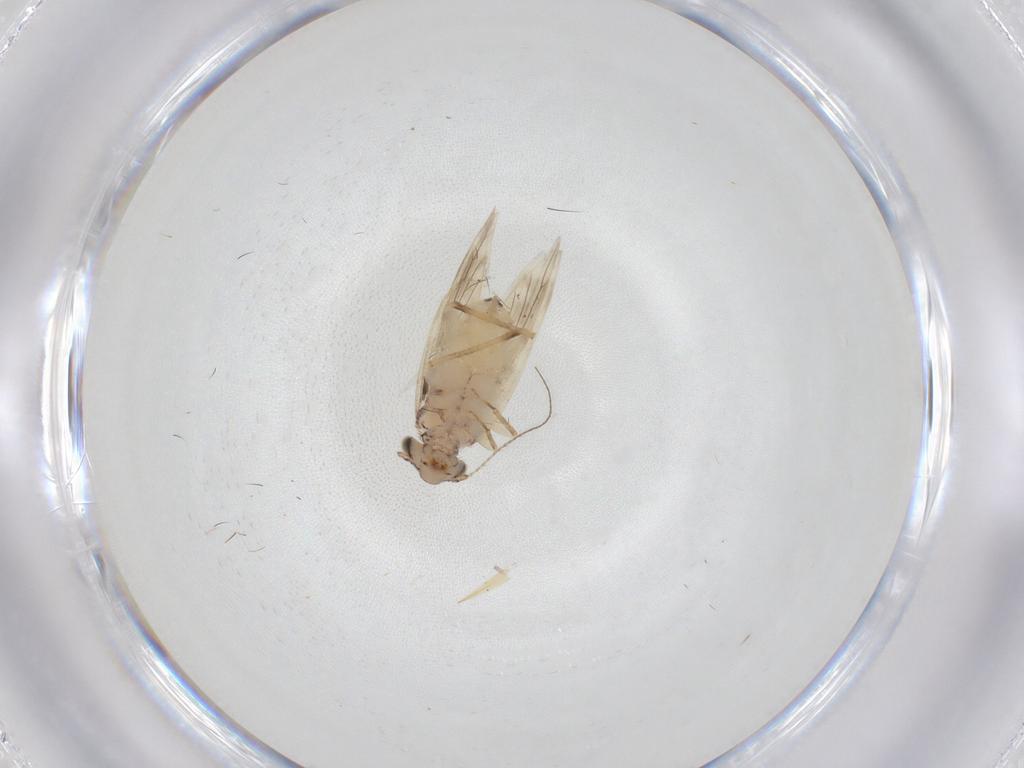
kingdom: Animalia
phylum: Arthropoda
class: Insecta
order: Psocodea
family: Lepidopsocidae
